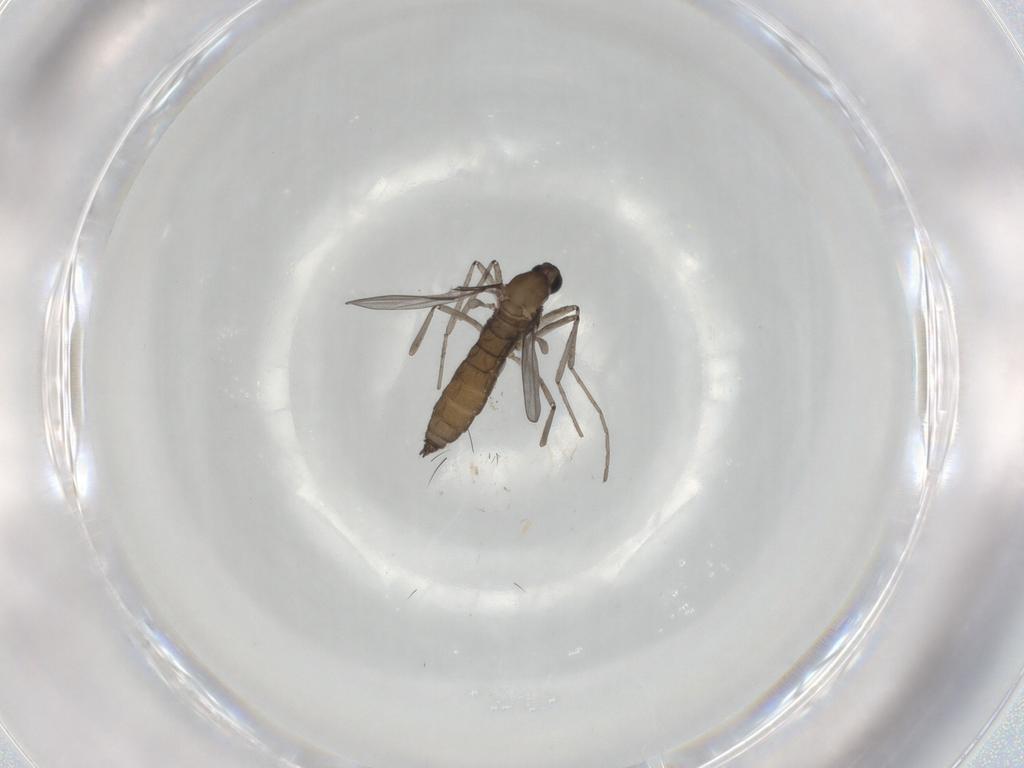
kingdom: Animalia
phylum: Arthropoda
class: Insecta
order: Diptera
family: Cecidomyiidae
